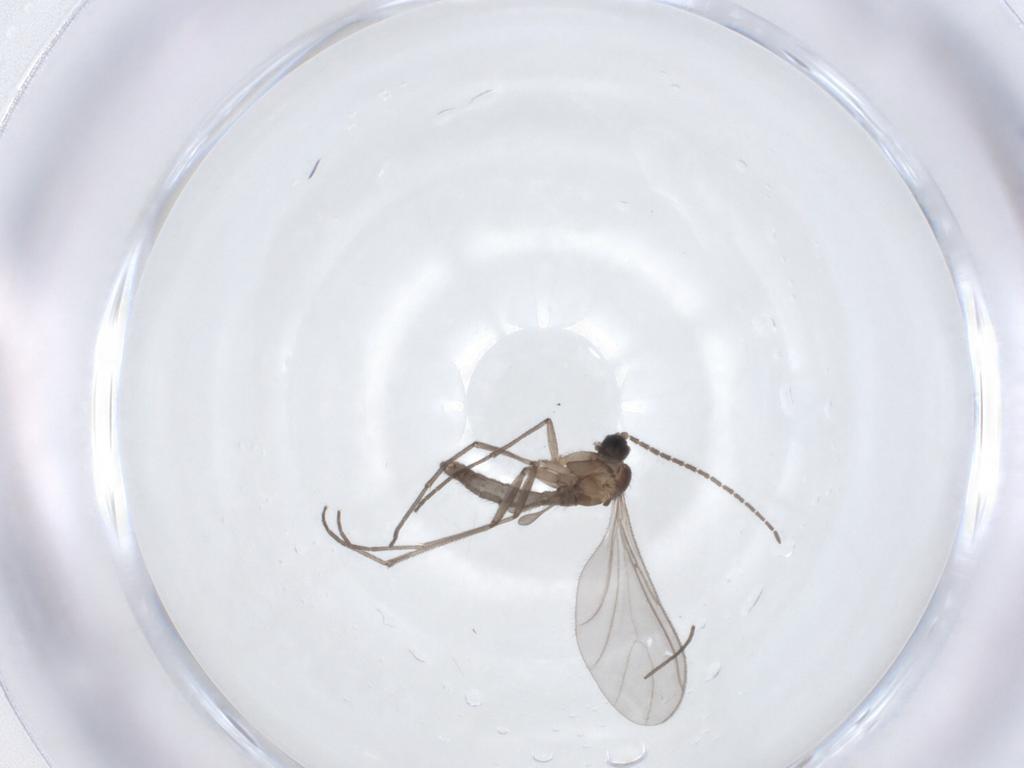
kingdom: Animalia
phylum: Arthropoda
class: Insecta
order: Diptera
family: Sciaridae
